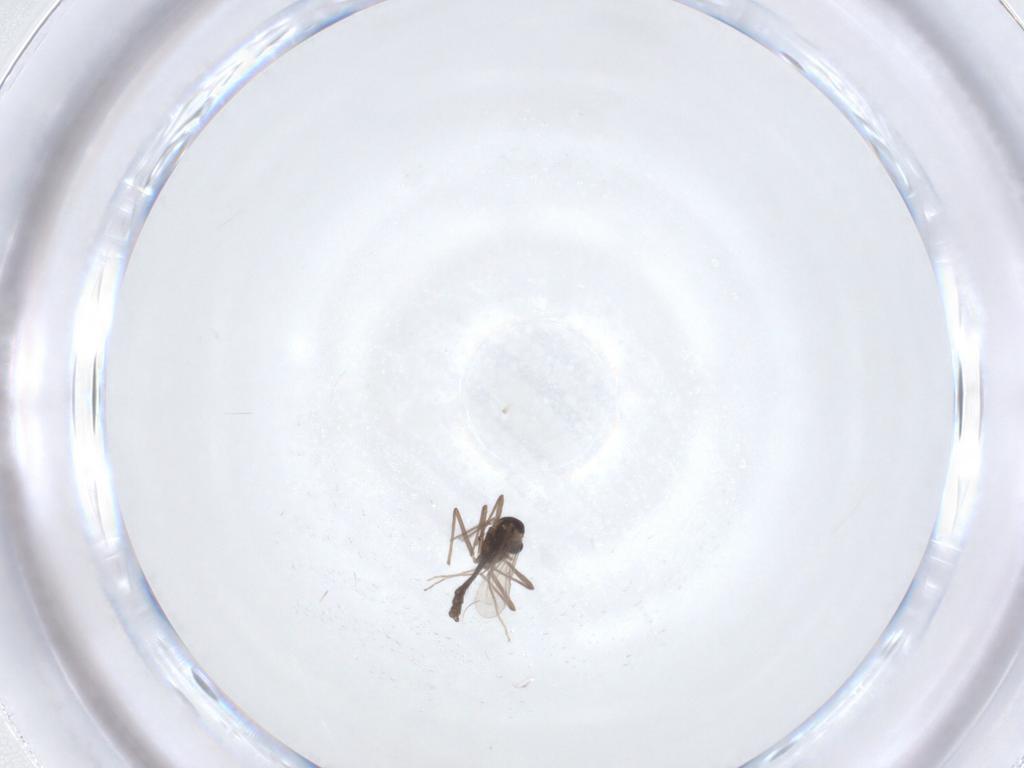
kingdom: Animalia
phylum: Arthropoda
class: Insecta
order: Diptera
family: Chironomidae
